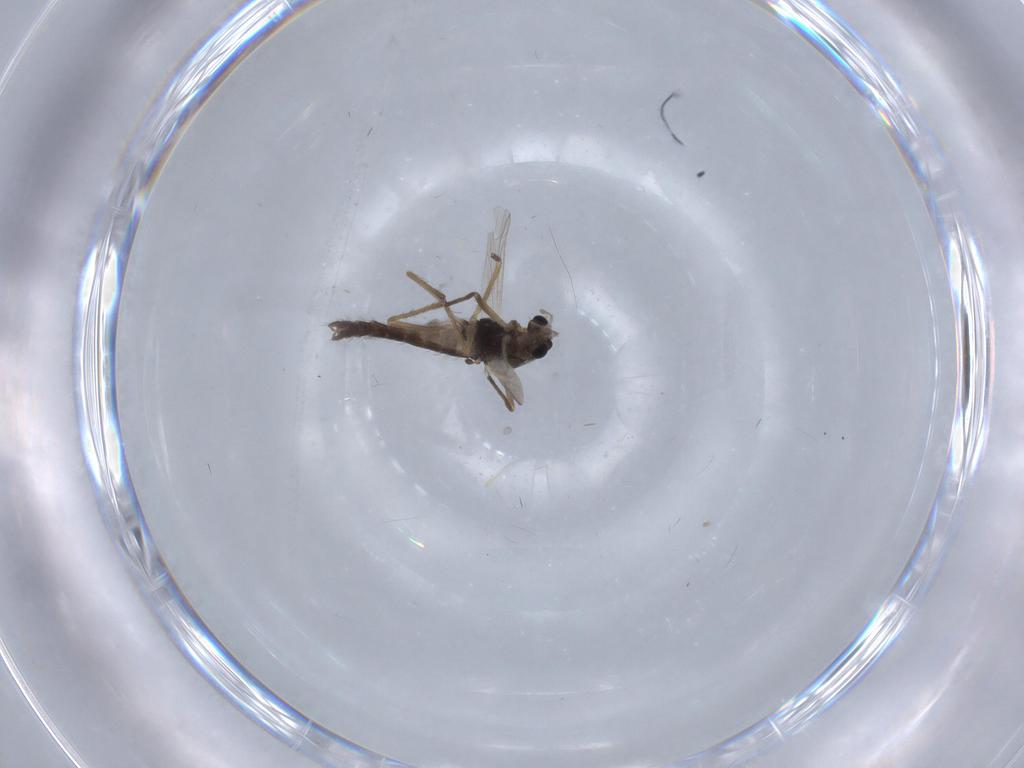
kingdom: Animalia
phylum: Arthropoda
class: Insecta
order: Diptera
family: Chironomidae
